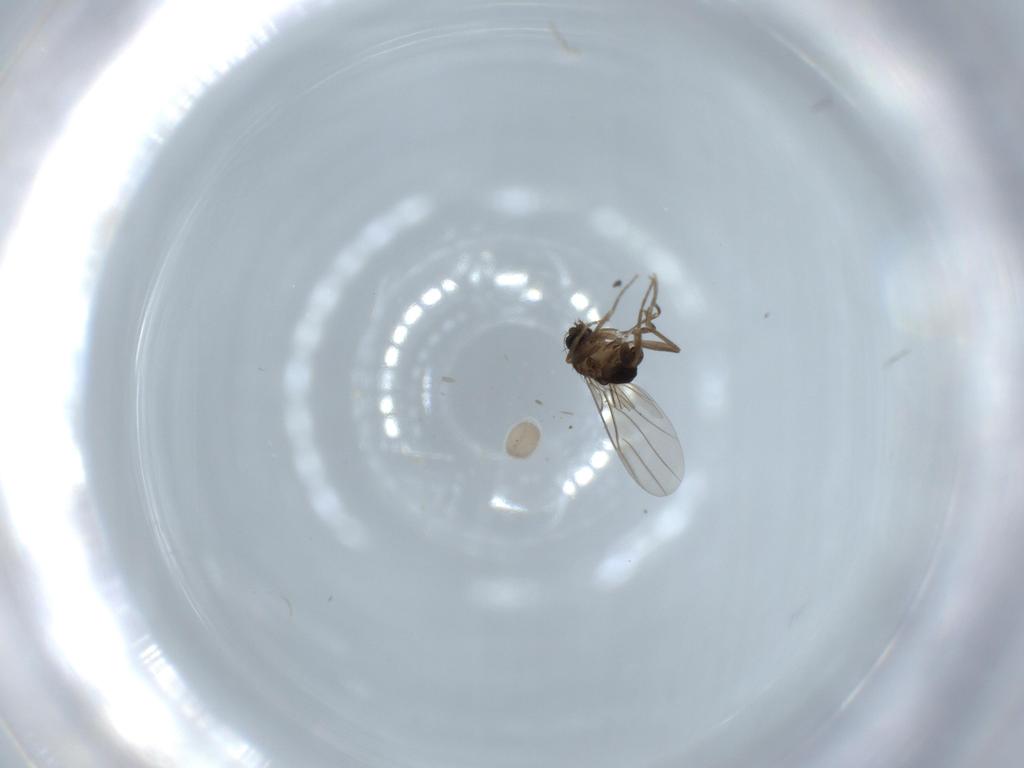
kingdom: Animalia
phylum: Arthropoda
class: Insecta
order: Diptera
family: Phoridae
